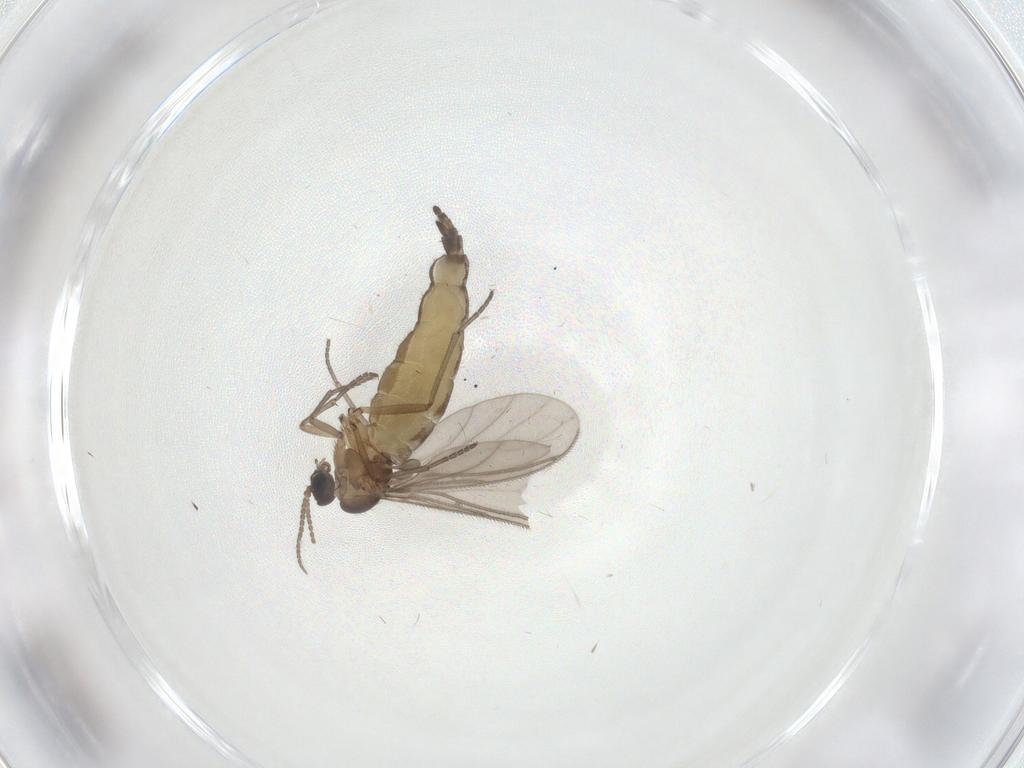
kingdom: Animalia
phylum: Arthropoda
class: Insecta
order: Diptera
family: Sciaridae
